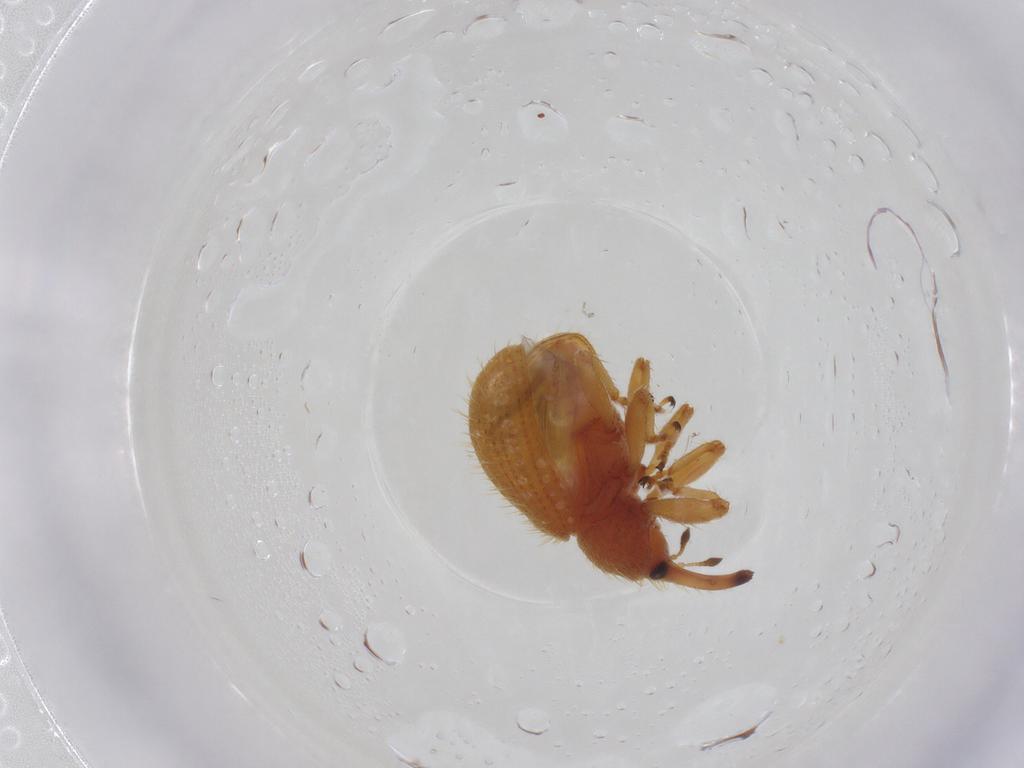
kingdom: Animalia
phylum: Arthropoda
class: Insecta
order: Coleoptera
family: Curculionidae
